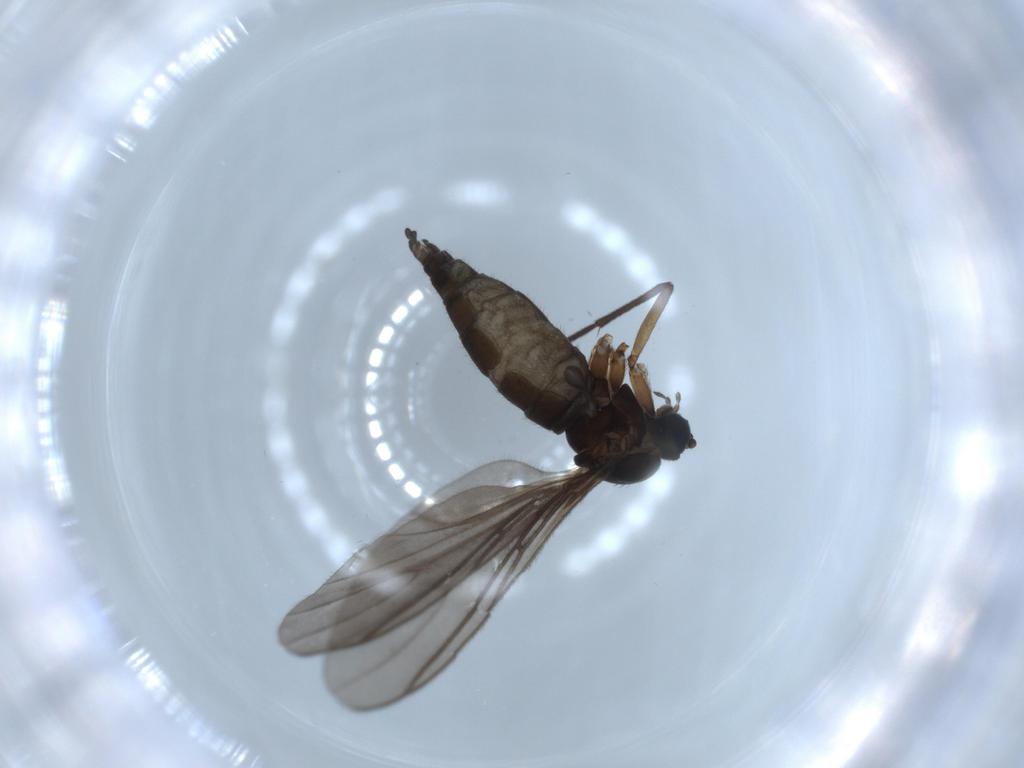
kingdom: Animalia
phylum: Arthropoda
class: Insecta
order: Diptera
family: Sciaridae
